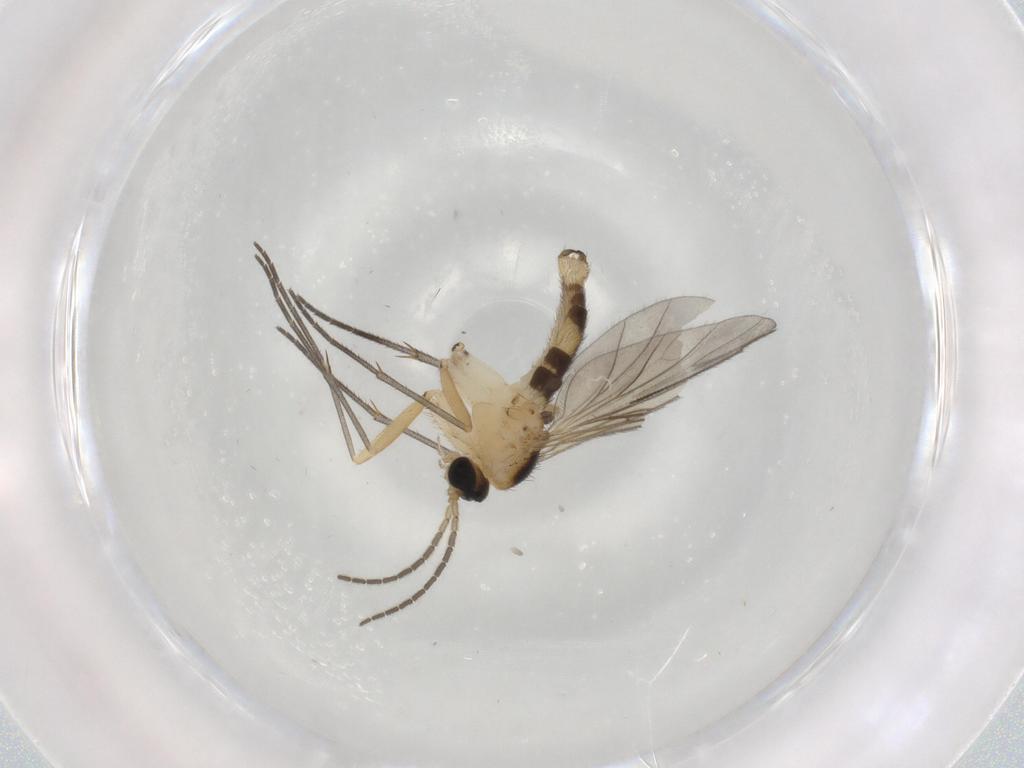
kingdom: Animalia
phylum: Arthropoda
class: Insecta
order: Diptera
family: Sciaridae
